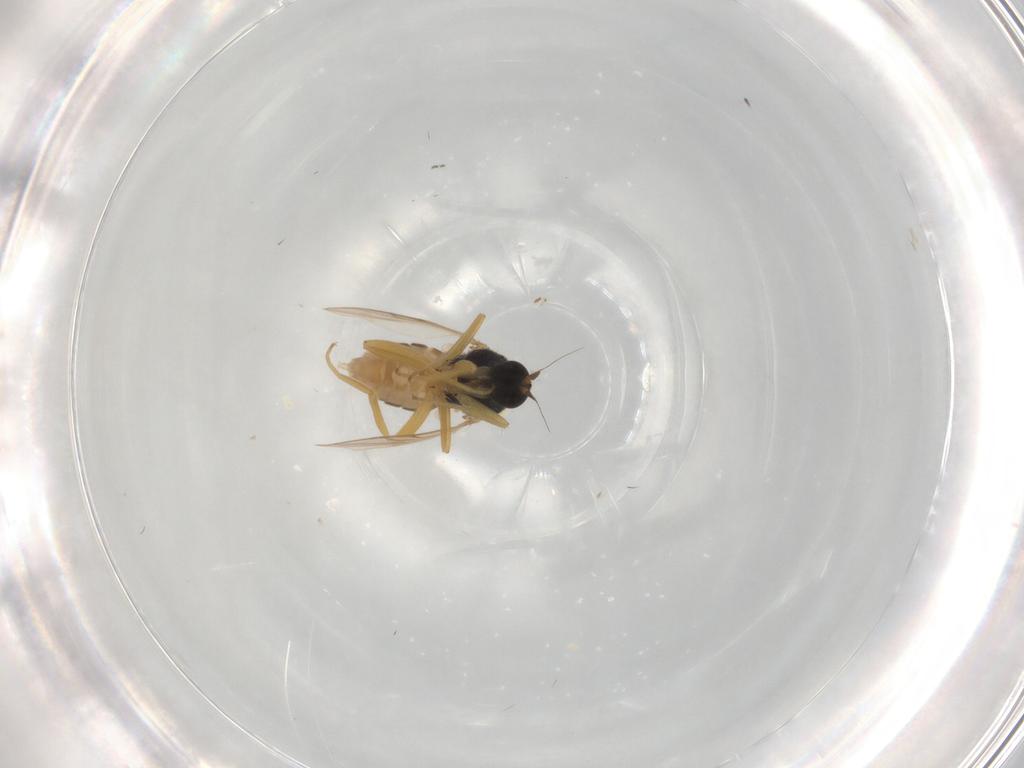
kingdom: Animalia
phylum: Arthropoda
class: Insecta
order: Diptera
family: Hybotidae
